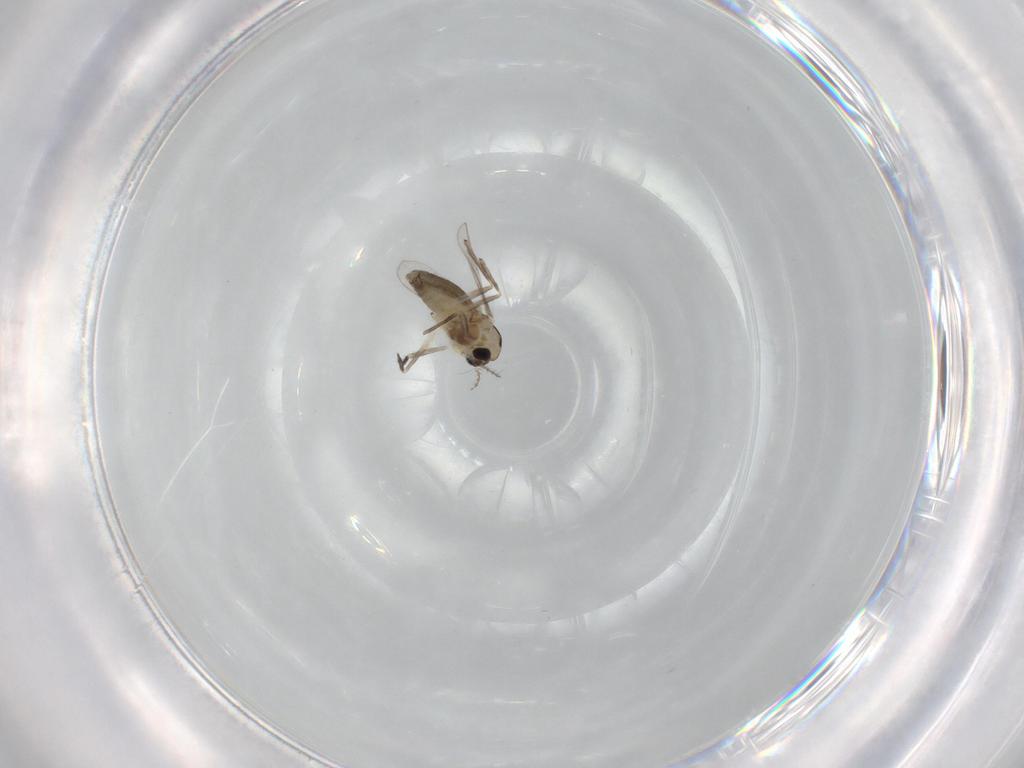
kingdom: Animalia
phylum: Arthropoda
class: Insecta
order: Diptera
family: Chironomidae
